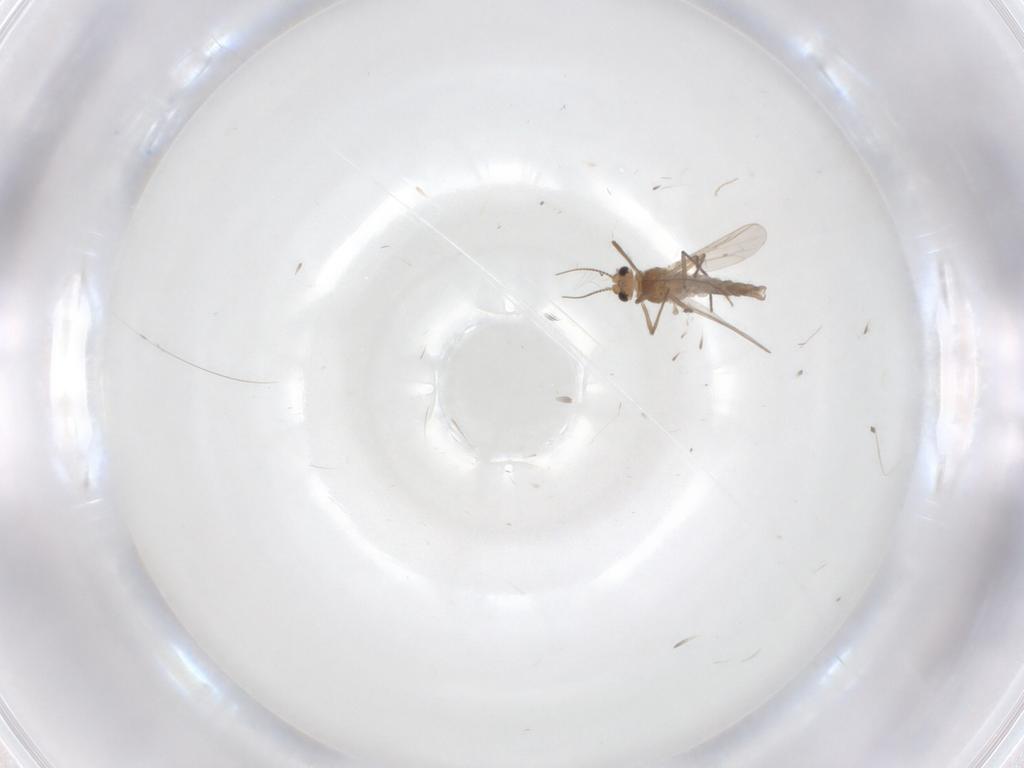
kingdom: Animalia
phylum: Arthropoda
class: Insecta
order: Diptera
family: Chironomidae
